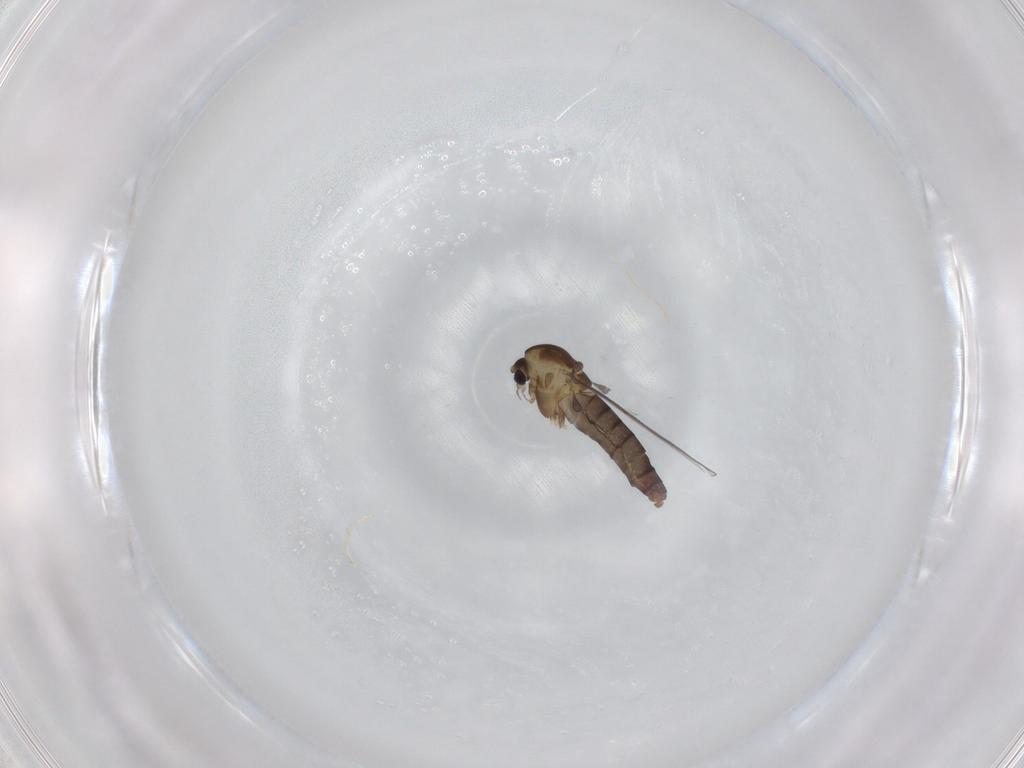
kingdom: Animalia
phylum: Arthropoda
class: Insecta
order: Diptera
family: Chironomidae
